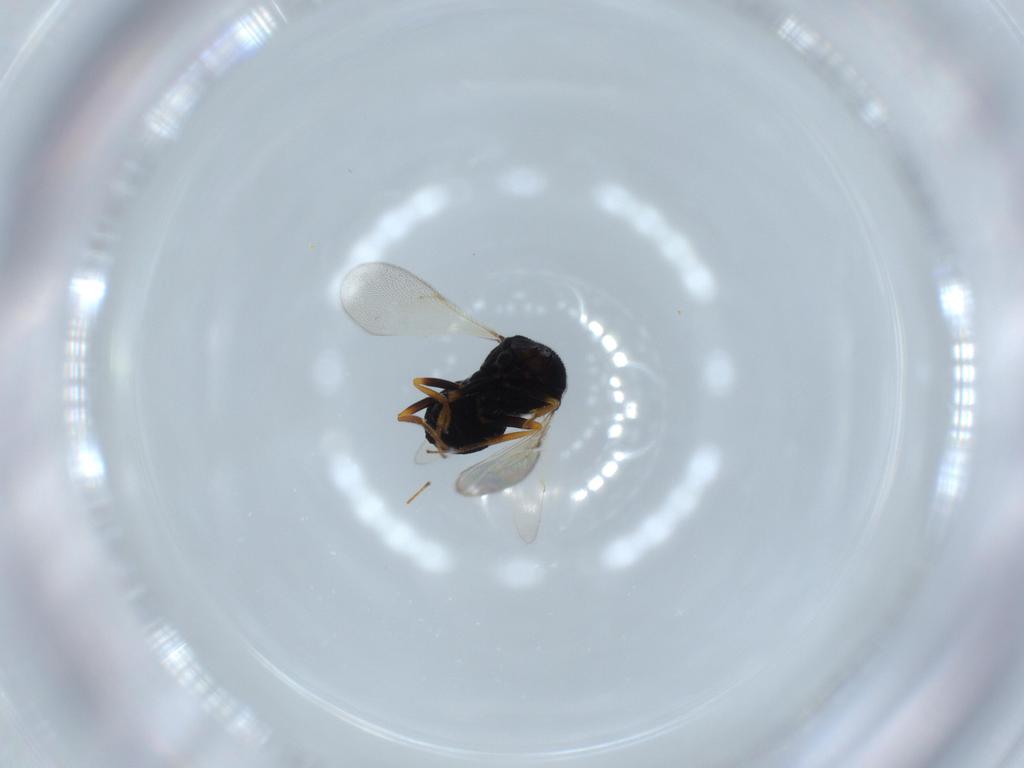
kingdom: Animalia
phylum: Arthropoda
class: Insecta
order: Hymenoptera
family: Scelionidae
